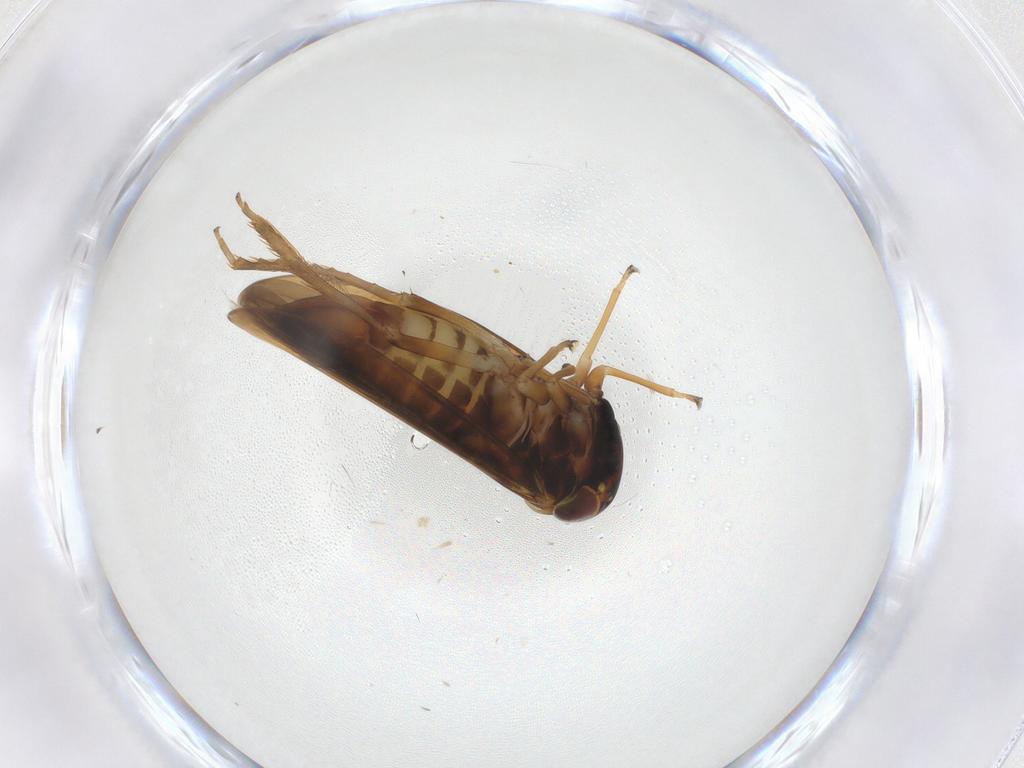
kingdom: Animalia
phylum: Arthropoda
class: Insecta
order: Hemiptera
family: Cicadellidae
